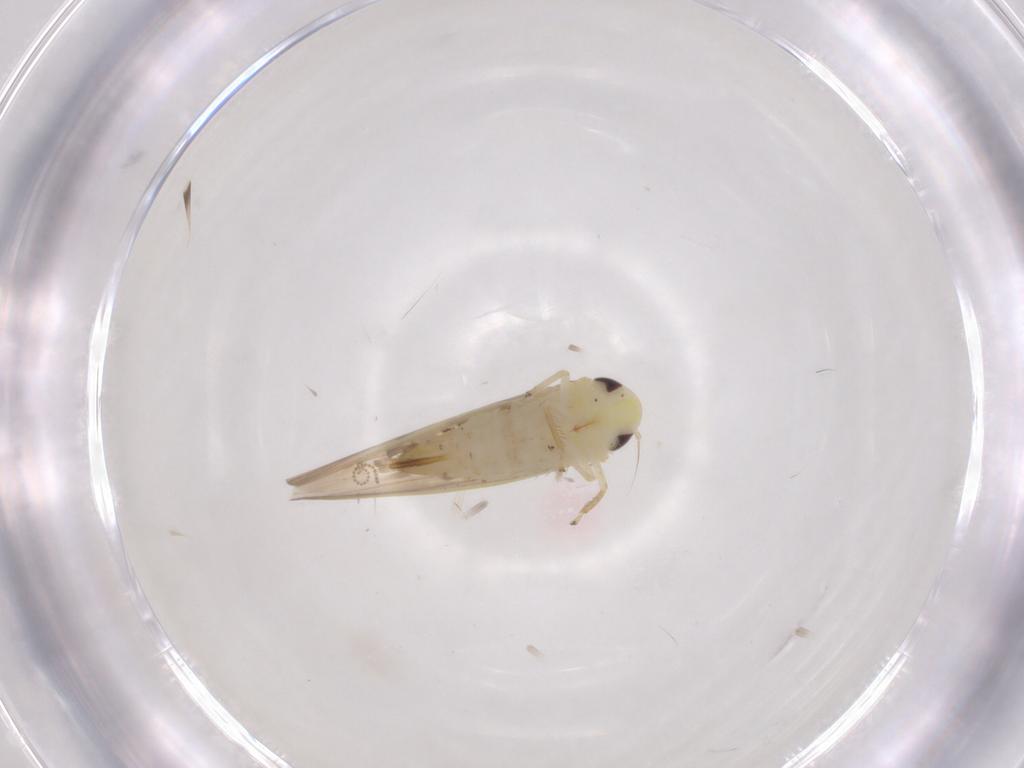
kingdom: Animalia
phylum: Arthropoda
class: Insecta
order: Hemiptera
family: Cicadellidae
